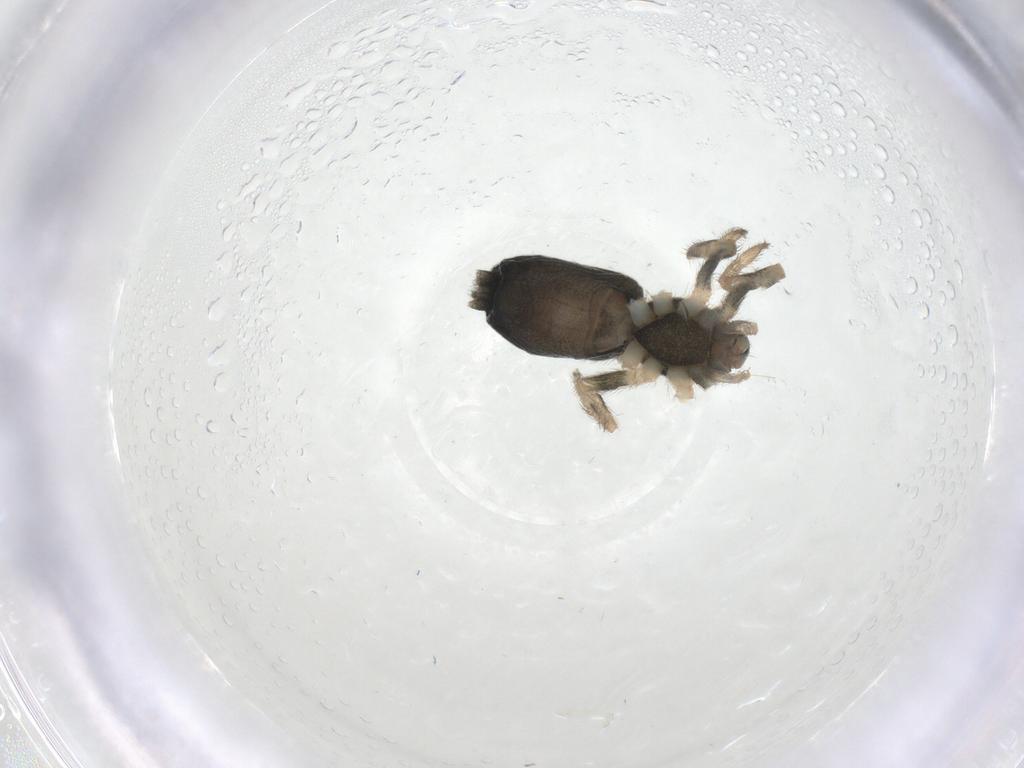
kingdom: Animalia
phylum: Arthropoda
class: Arachnida
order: Araneae
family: Gnaphosidae
